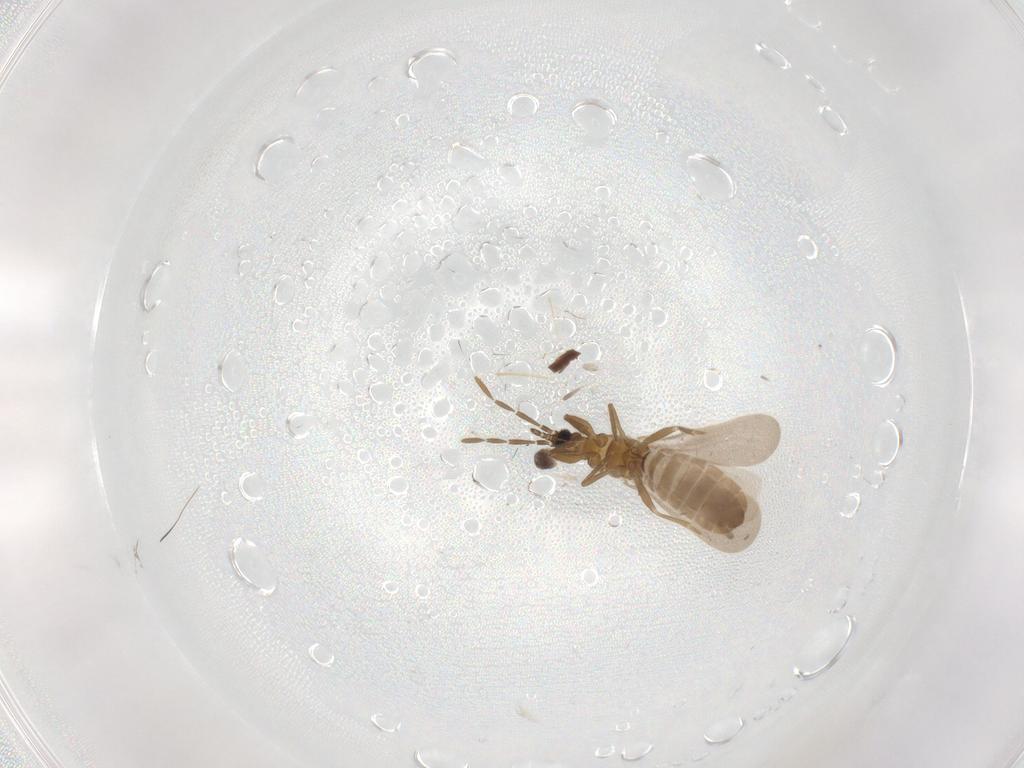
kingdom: Animalia
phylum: Arthropoda
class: Insecta
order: Hemiptera
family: Enicocephalidae
